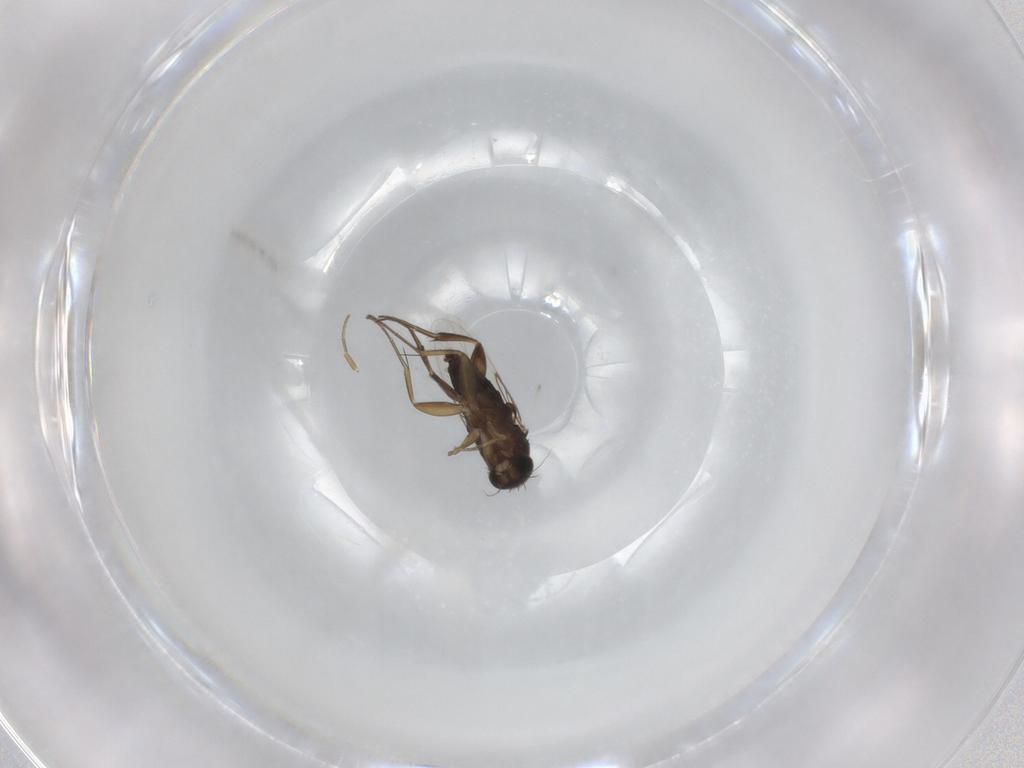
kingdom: Animalia
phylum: Arthropoda
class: Insecta
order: Diptera
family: Phoridae
